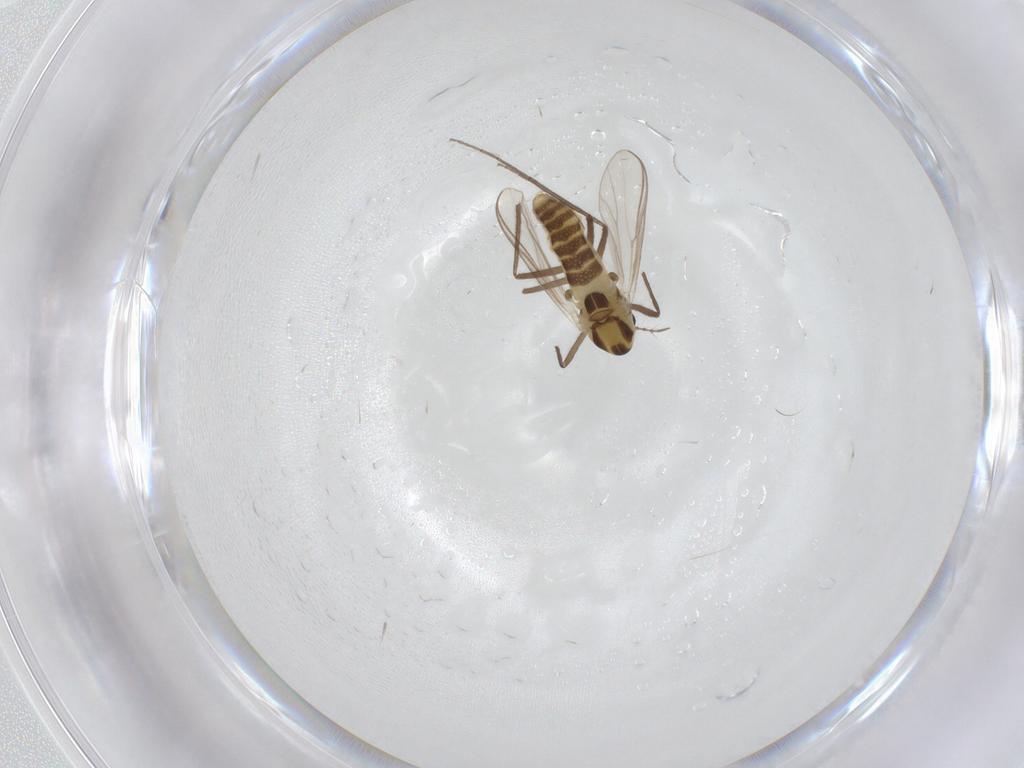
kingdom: Animalia
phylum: Arthropoda
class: Insecta
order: Diptera
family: Chironomidae
